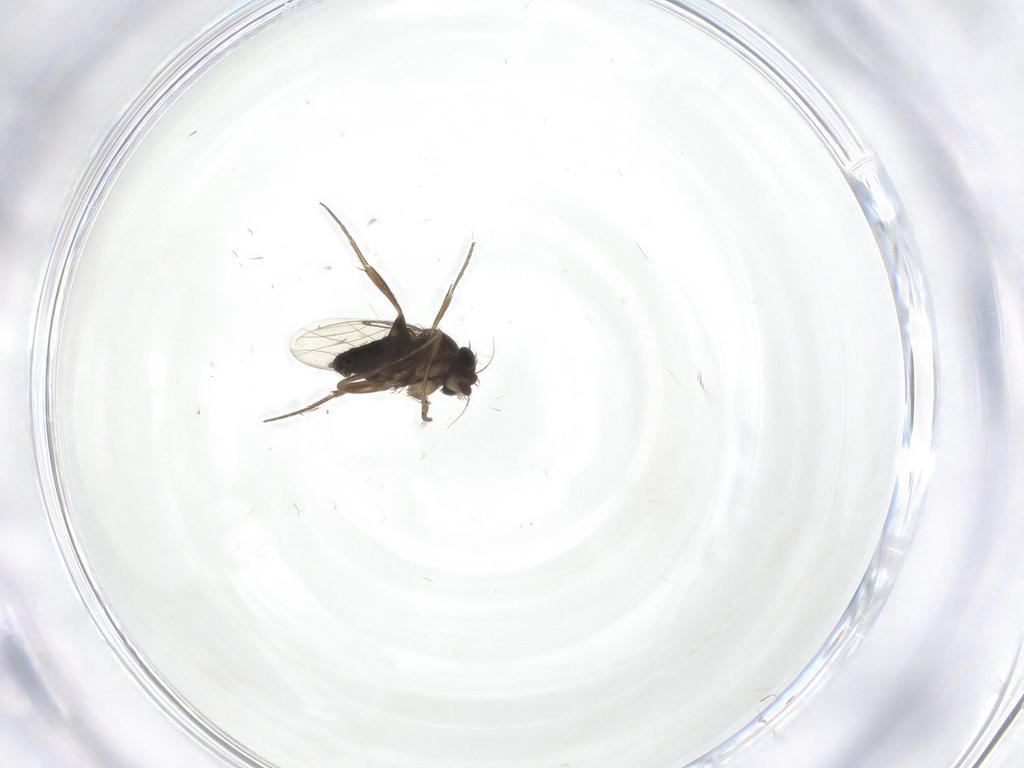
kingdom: Animalia
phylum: Arthropoda
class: Insecta
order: Diptera
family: Phoridae
